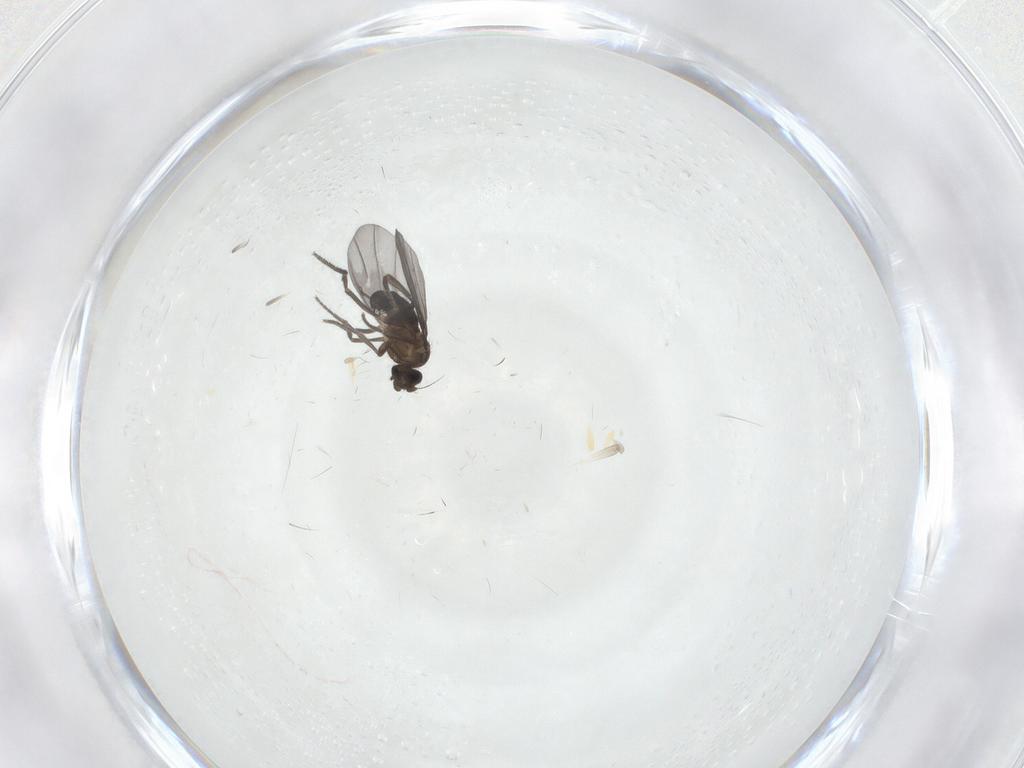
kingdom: Animalia
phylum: Arthropoda
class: Insecta
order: Diptera
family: Phoridae
